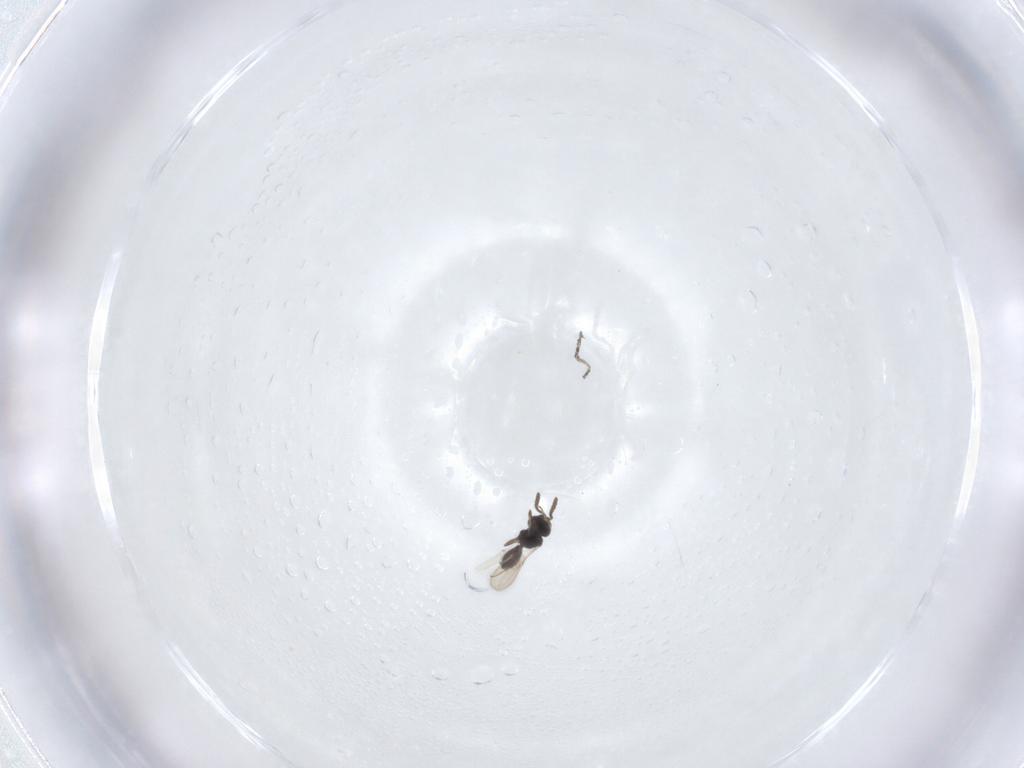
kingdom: Animalia
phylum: Arthropoda
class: Insecta
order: Hymenoptera
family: Scelionidae
